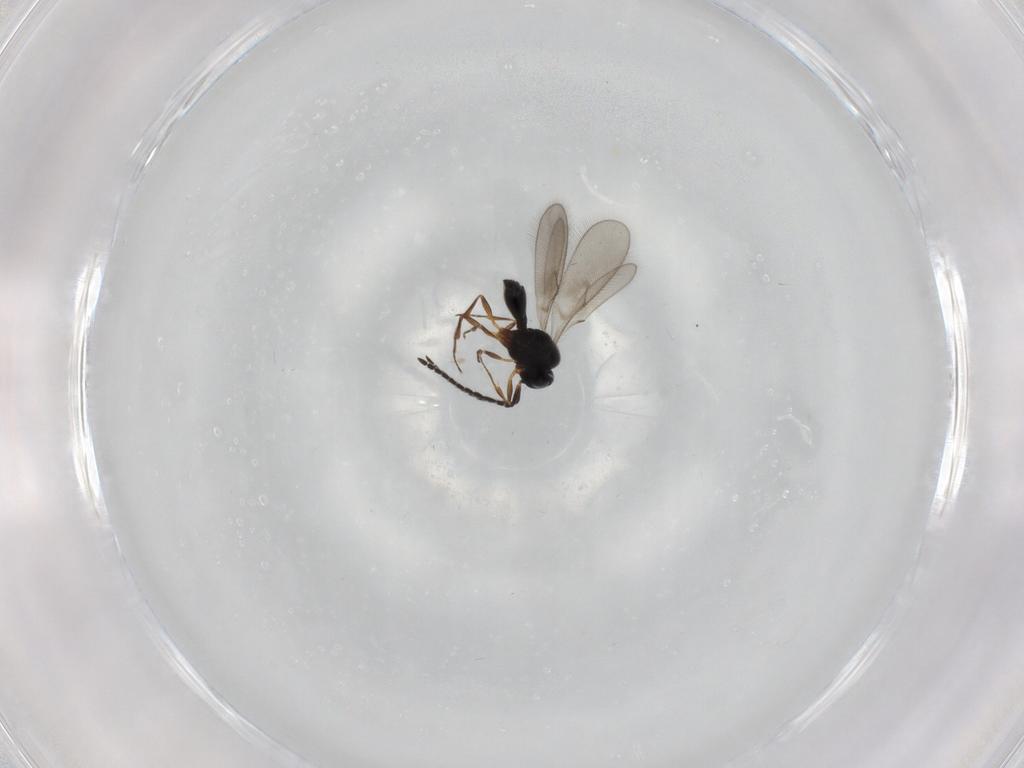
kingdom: Animalia
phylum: Arthropoda
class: Insecta
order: Hymenoptera
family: Scelionidae
